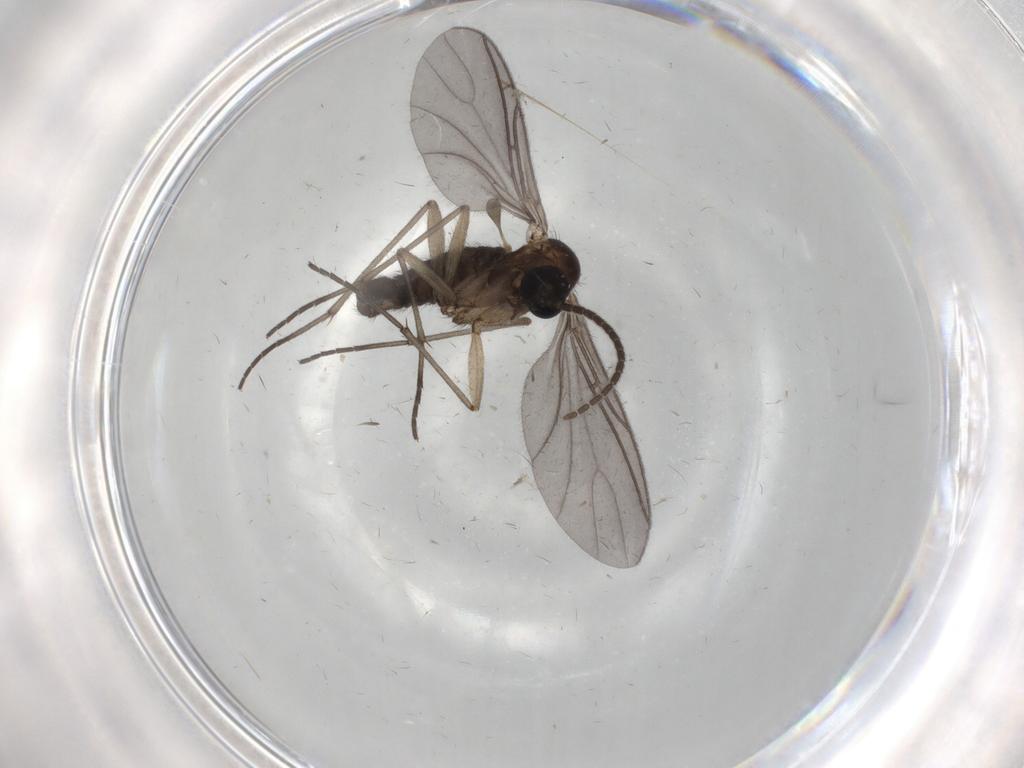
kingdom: Animalia
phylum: Arthropoda
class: Insecta
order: Diptera
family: Sciaridae
